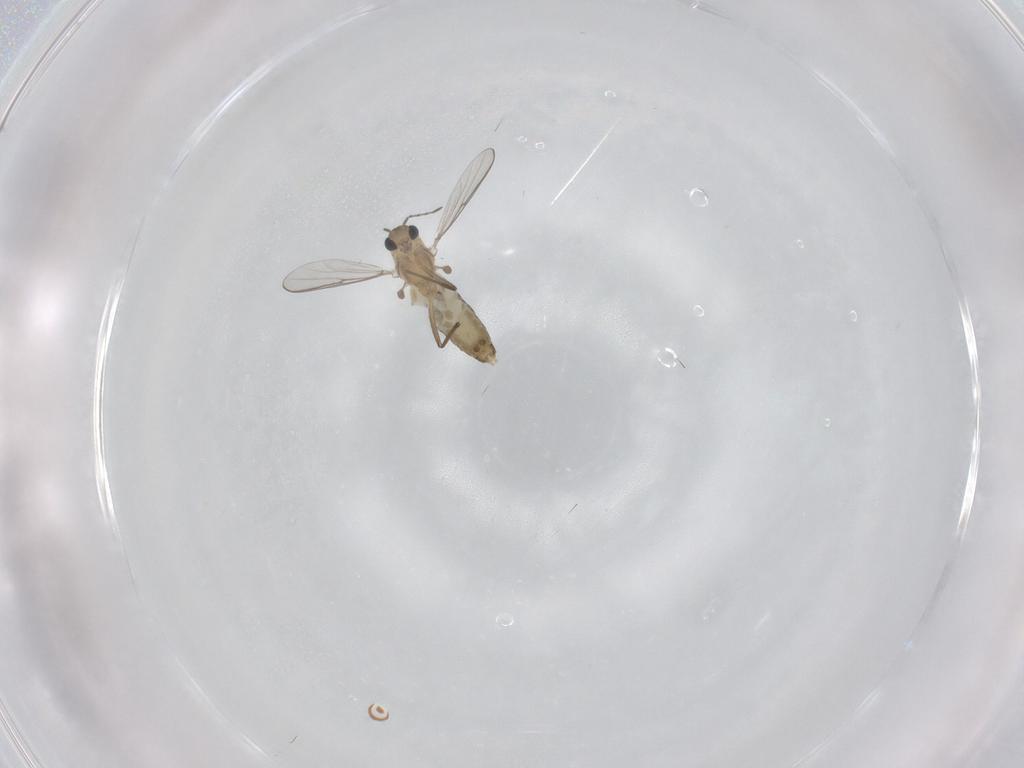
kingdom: Animalia
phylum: Arthropoda
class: Insecta
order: Diptera
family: Chironomidae
